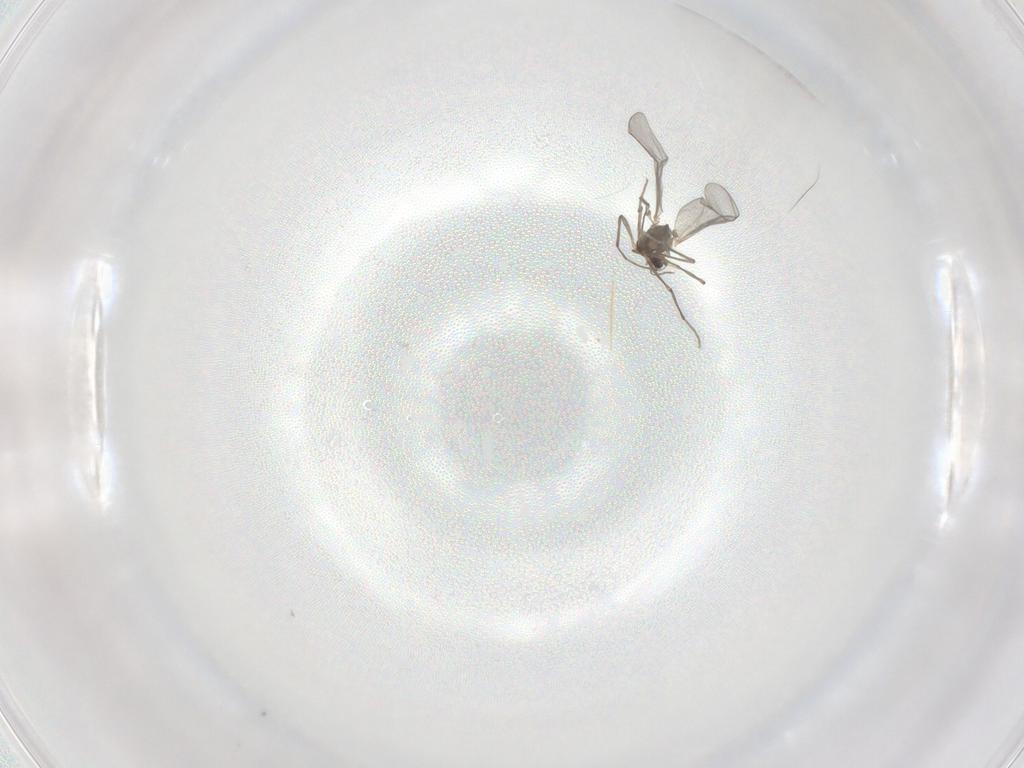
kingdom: Animalia
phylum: Arthropoda
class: Insecta
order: Diptera
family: Chironomidae
